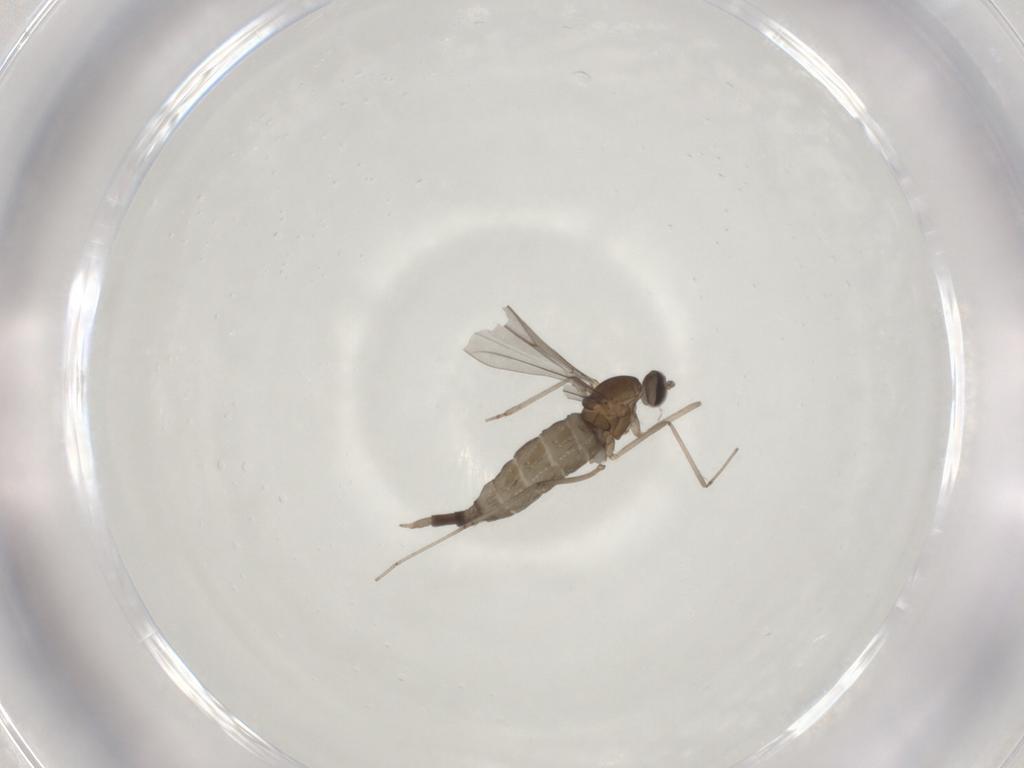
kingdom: Animalia
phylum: Arthropoda
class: Insecta
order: Diptera
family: Cecidomyiidae
